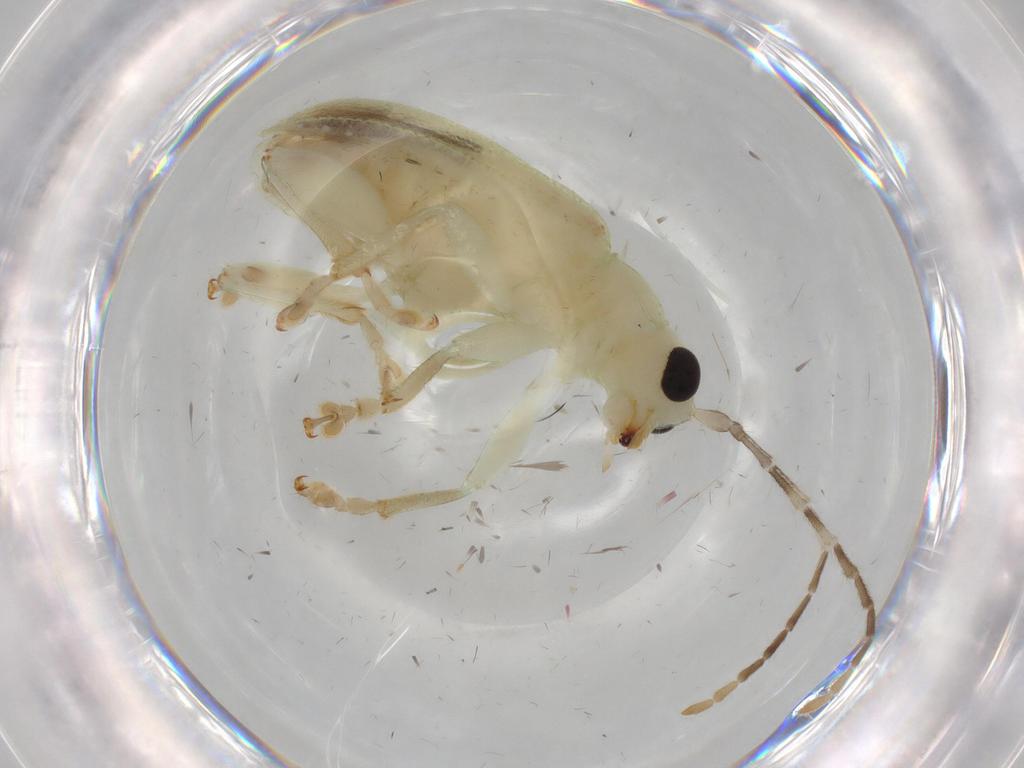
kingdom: Animalia
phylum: Arthropoda
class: Insecta
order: Coleoptera
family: Chrysomelidae
